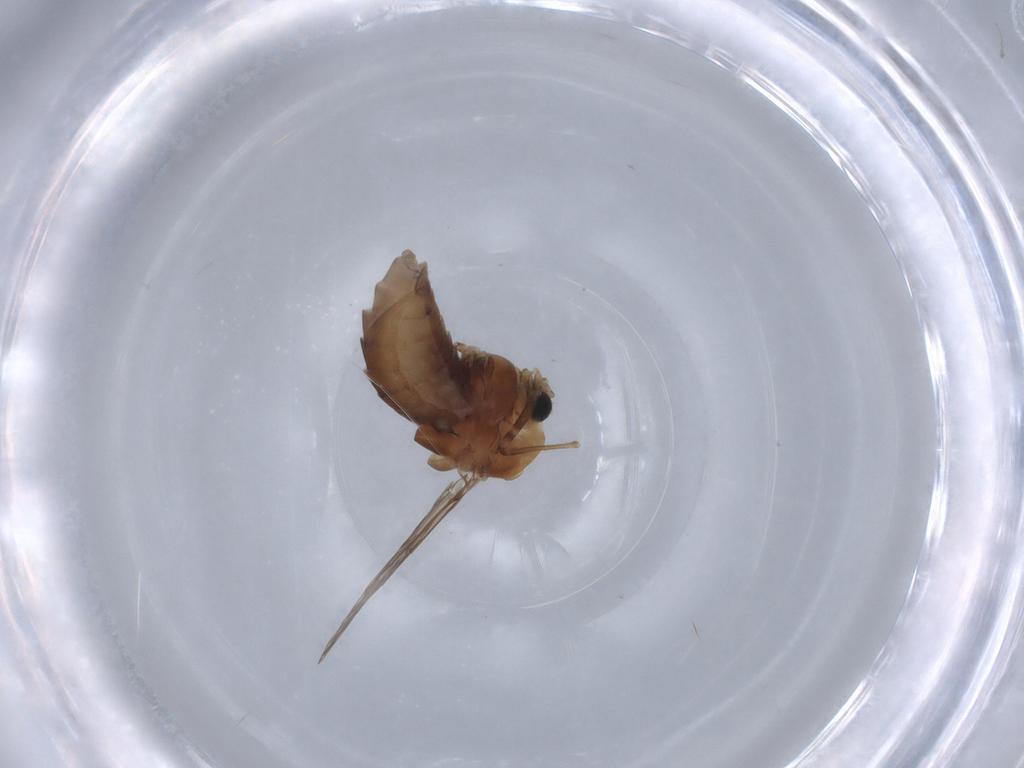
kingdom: Animalia
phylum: Arthropoda
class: Insecta
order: Diptera
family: Chironomidae
